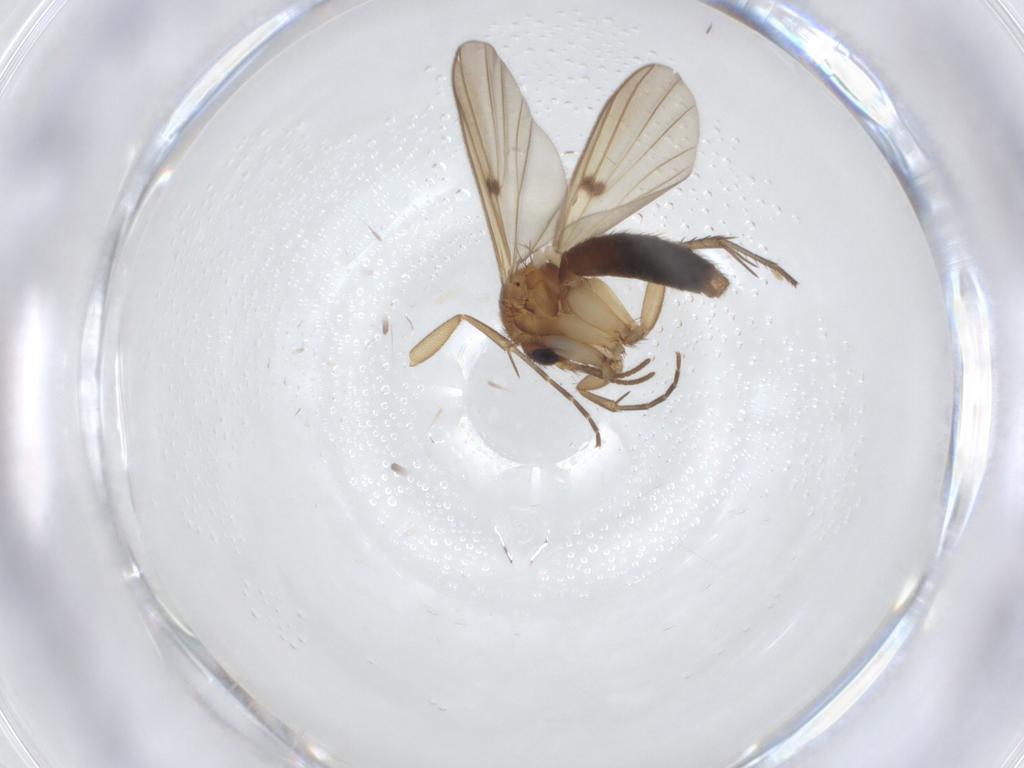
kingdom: Animalia
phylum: Arthropoda
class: Insecta
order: Diptera
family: Mycetophilidae
